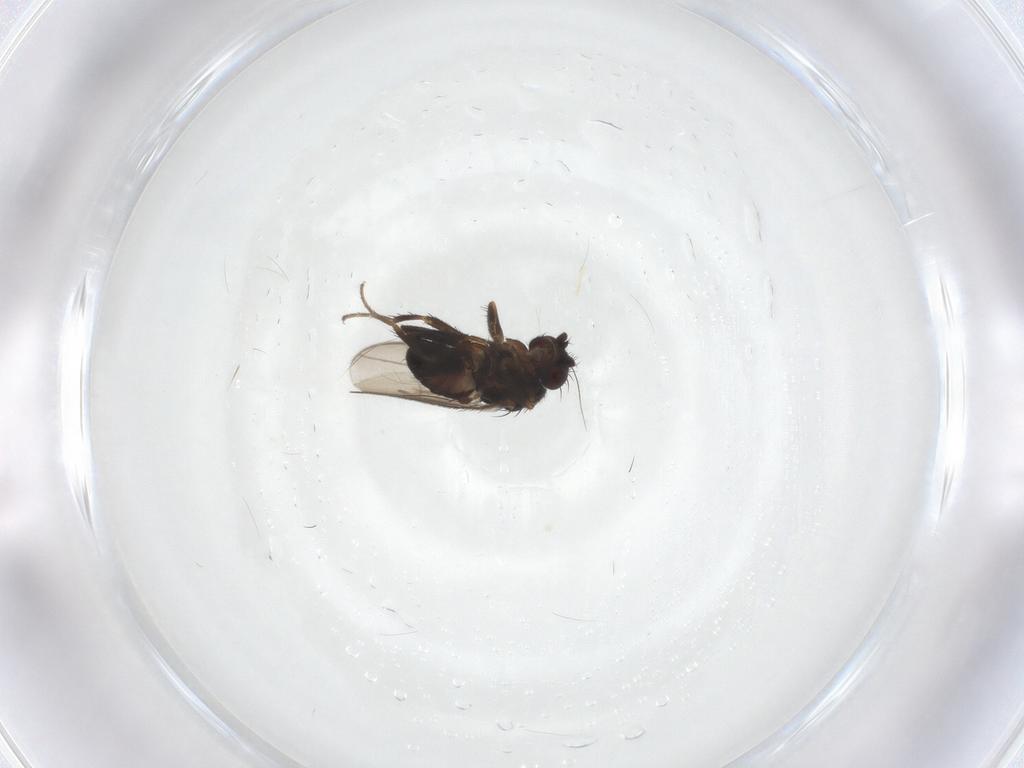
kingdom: Animalia
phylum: Arthropoda
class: Insecta
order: Diptera
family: Sphaeroceridae
